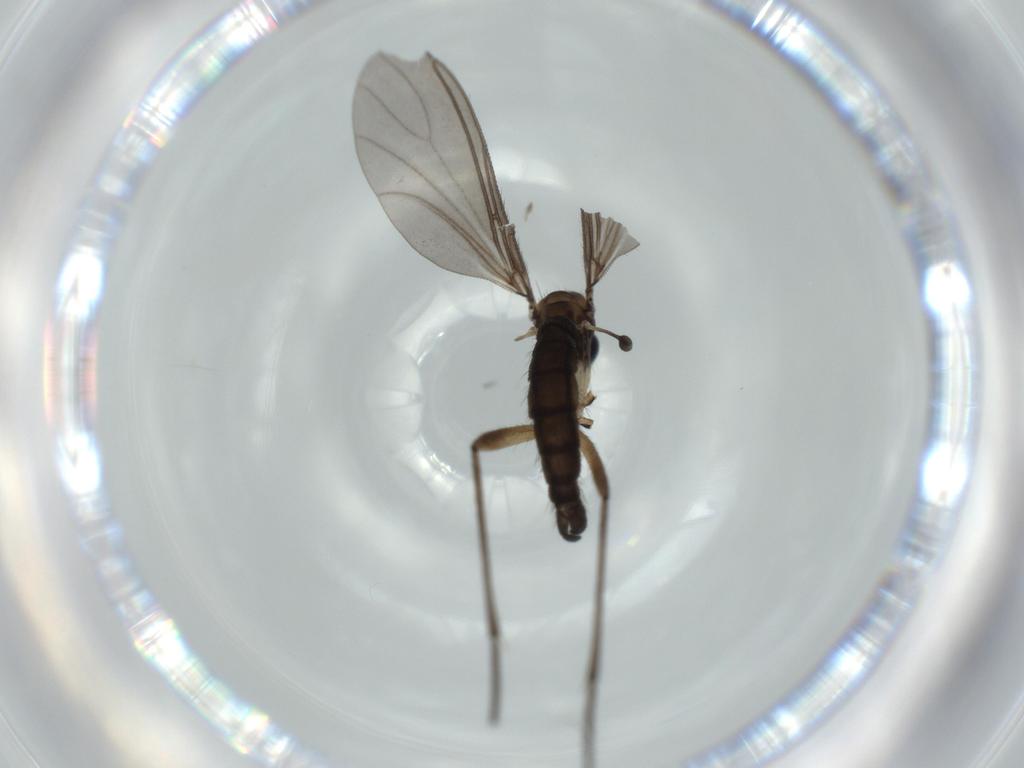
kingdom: Animalia
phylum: Arthropoda
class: Insecta
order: Diptera
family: Sciaridae
